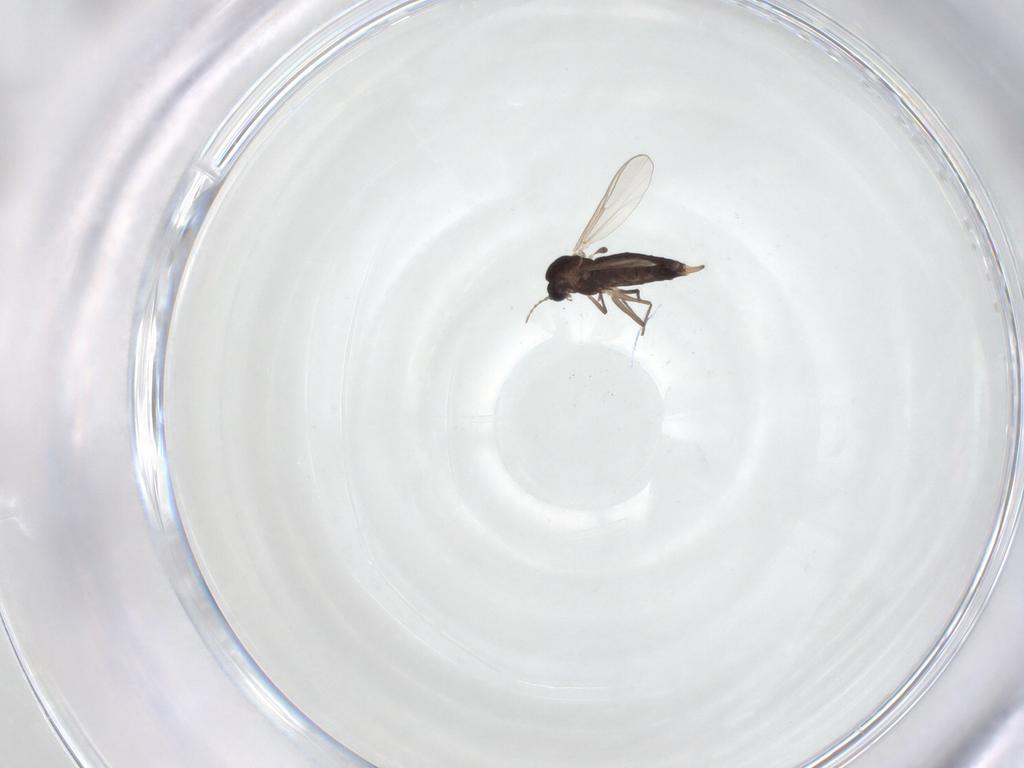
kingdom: Animalia
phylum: Arthropoda
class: Insecta
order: Diptera
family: Chironomidae
